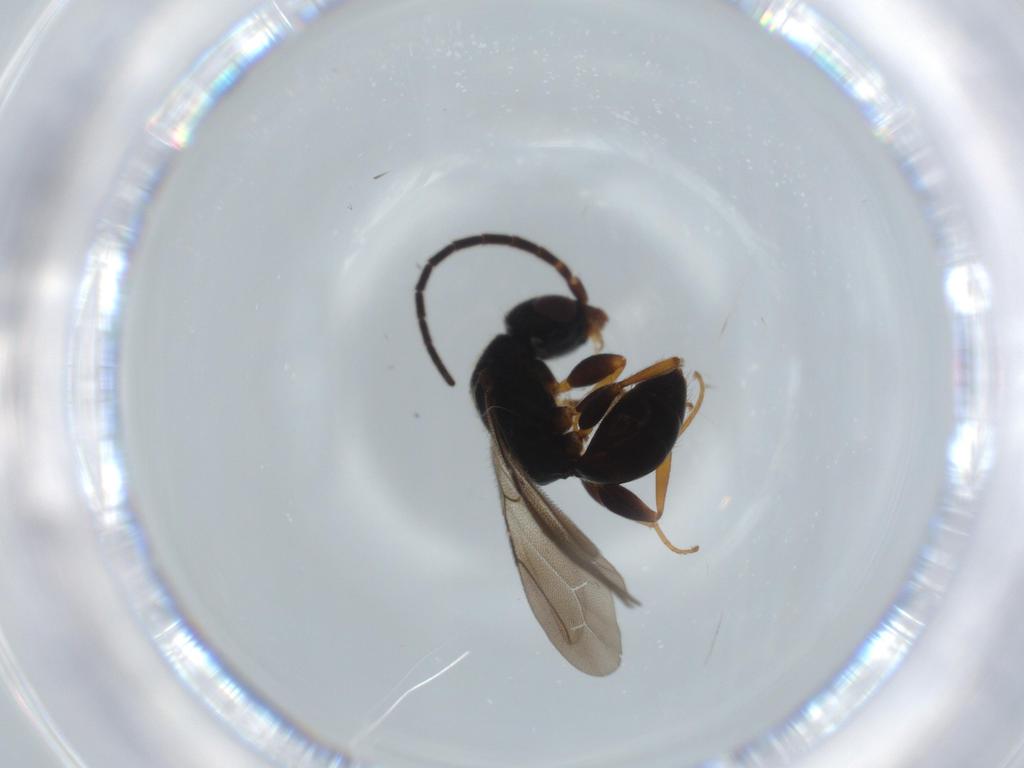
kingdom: Animalia
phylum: Arthropoda
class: Insecta
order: Hymenoptera
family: Bethylidae
